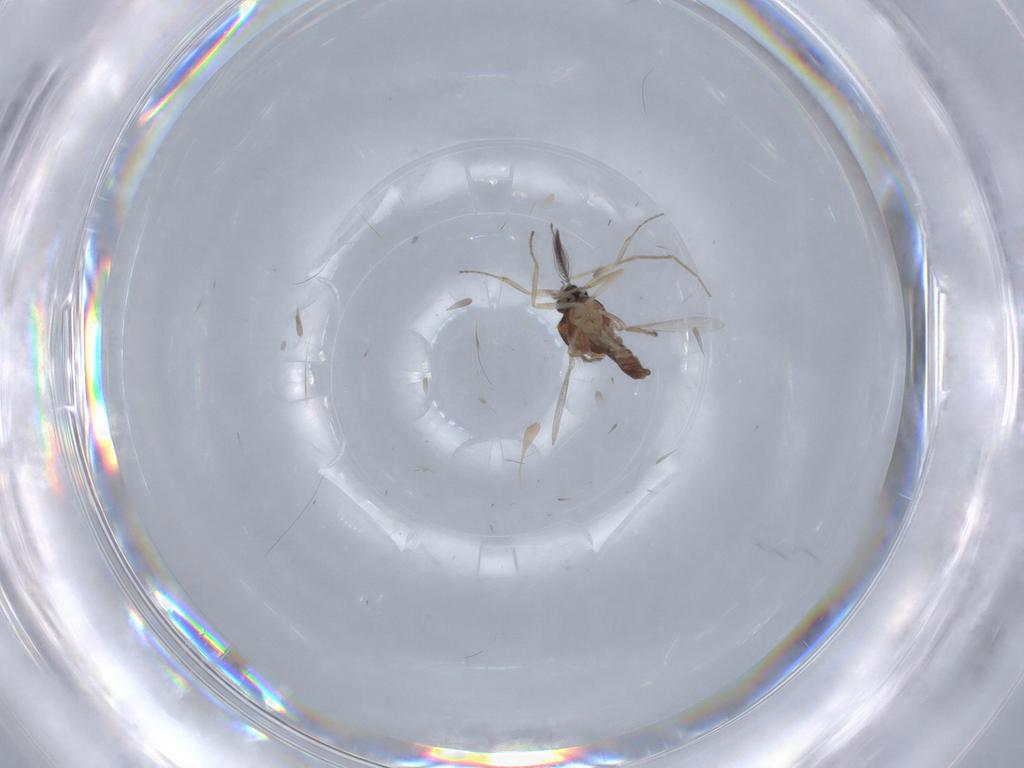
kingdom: Animalia
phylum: Arthropoda
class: Insecta
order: Diptera
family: Ceratopogonidae
